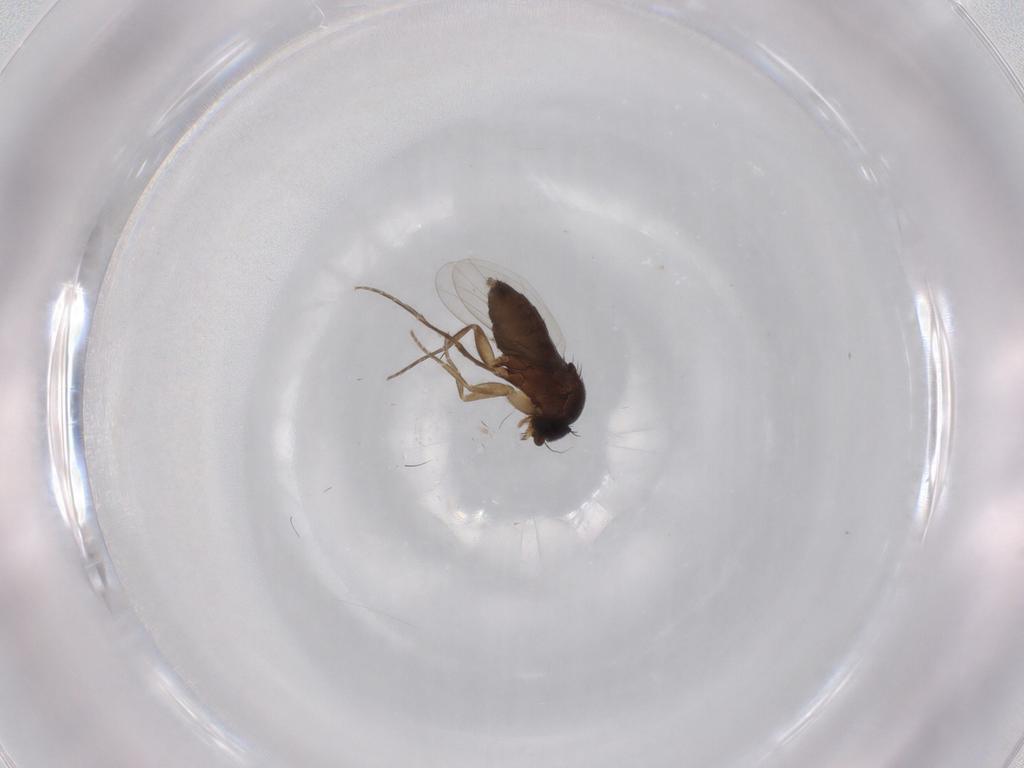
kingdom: Animalia
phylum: Arthropoda
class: Insecta
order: Diptera
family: Phoridae
